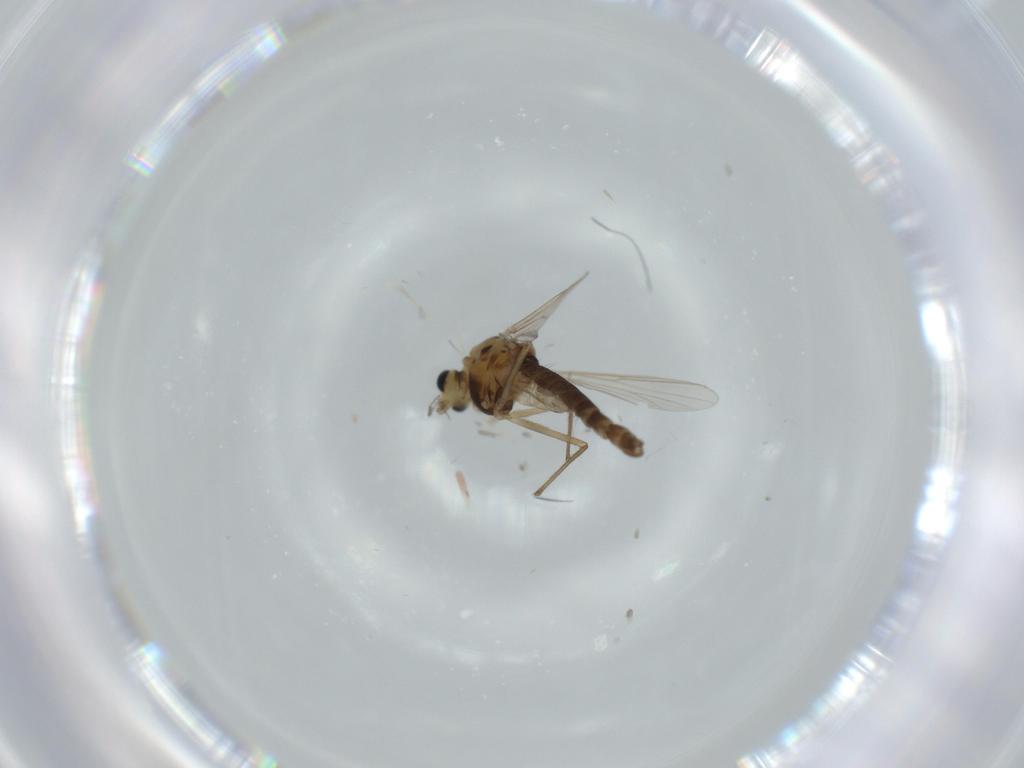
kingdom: Animalia
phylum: Arthropoda
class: Insecta
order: Diptera
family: Chironomidae
